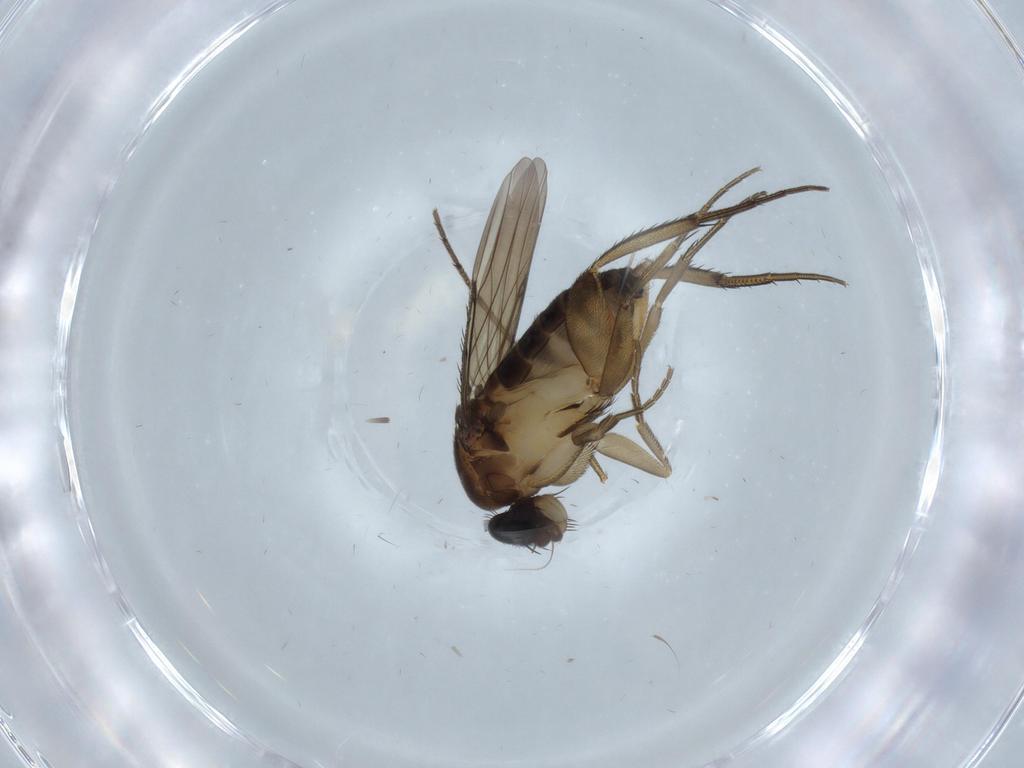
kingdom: Animalia
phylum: Arthropoda
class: Insecta
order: Diptera
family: Phoridae
